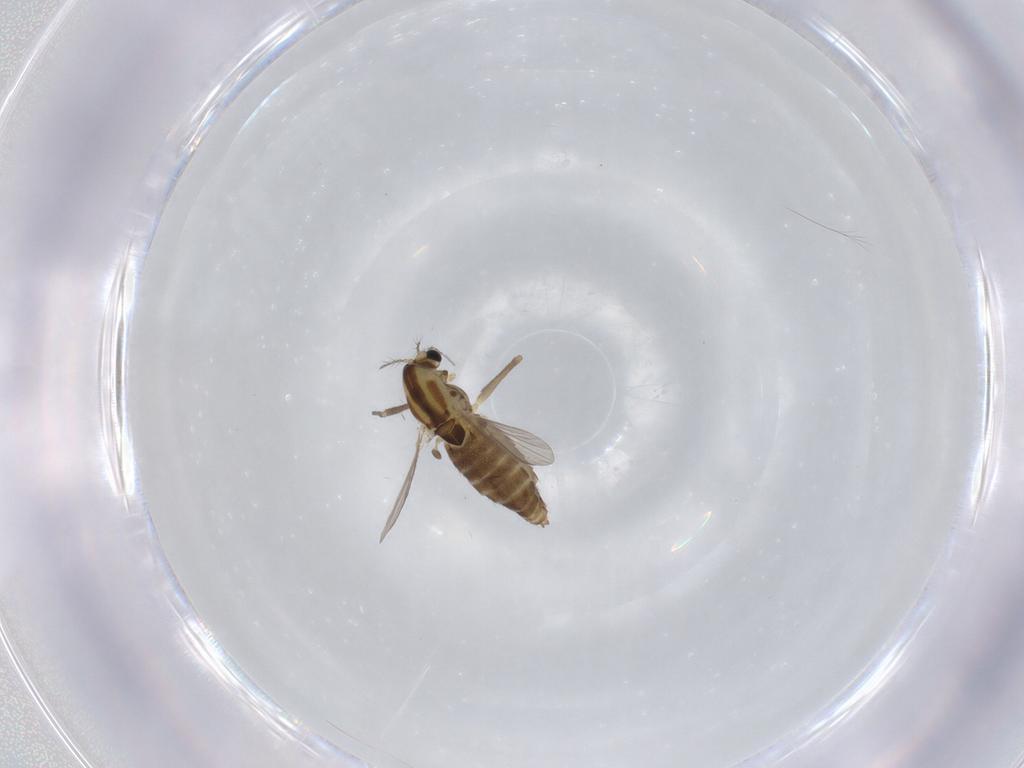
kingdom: Animalia
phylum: Arthropoda
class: Insecta
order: Diptera
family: Chironomidae
